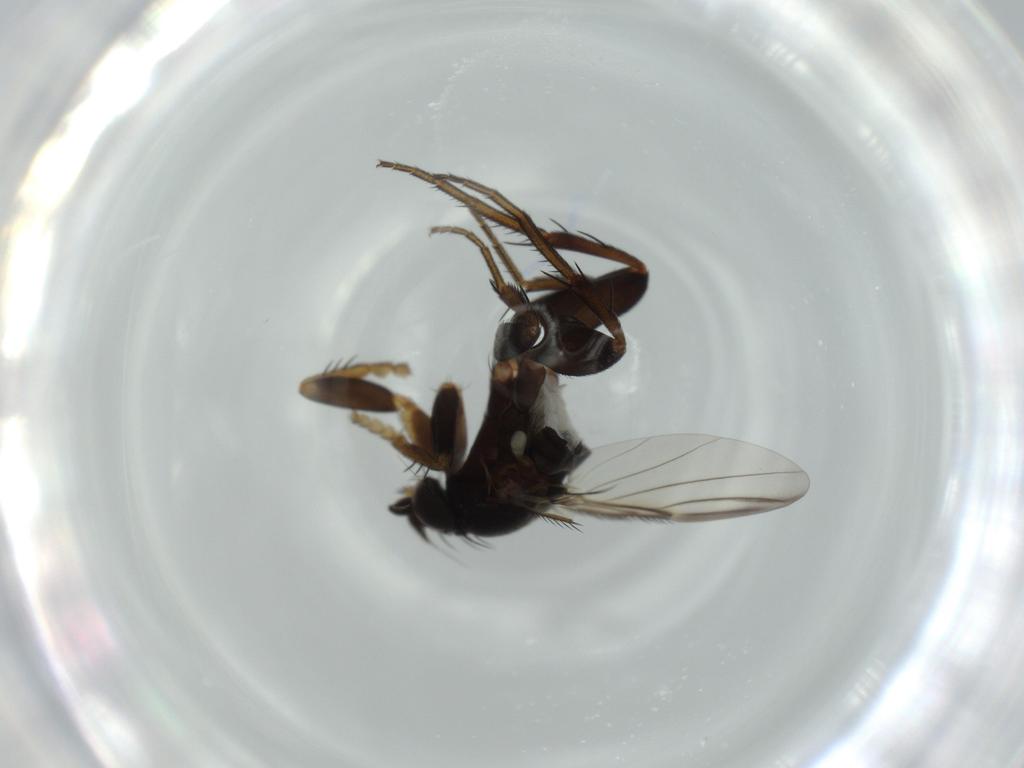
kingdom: Animalia
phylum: Arthropoda
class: Insecta
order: Diptera
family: Phoridae
